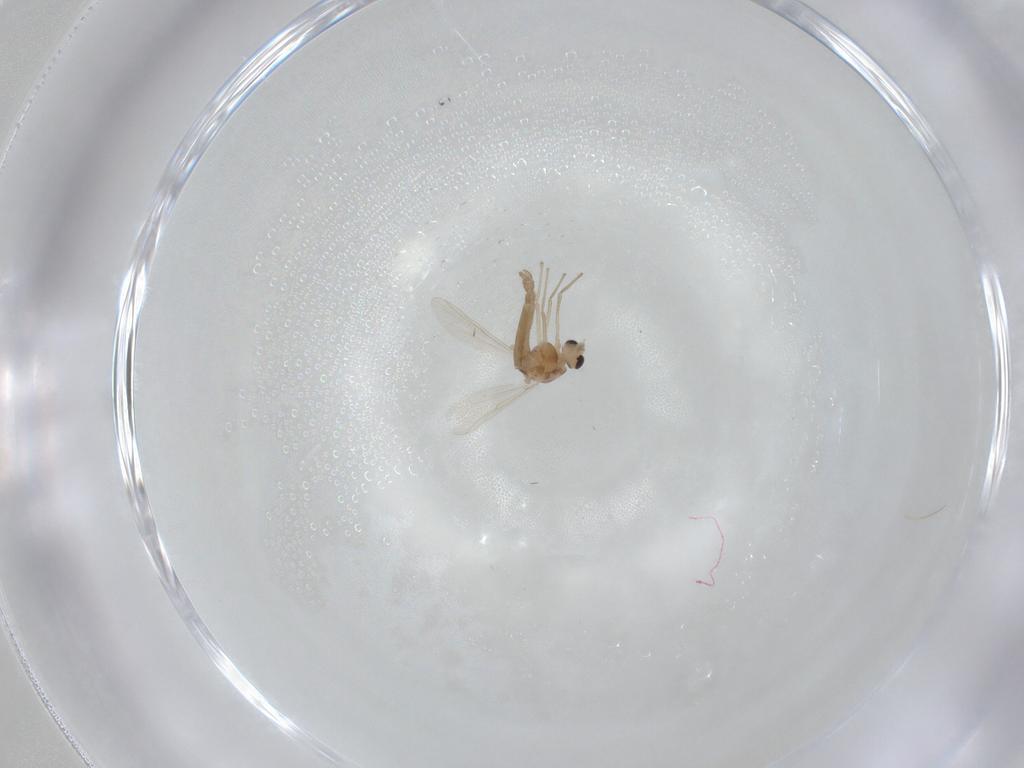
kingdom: Animalia
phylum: Arthropoda
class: Insecta
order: Diptera
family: Chironomidae
